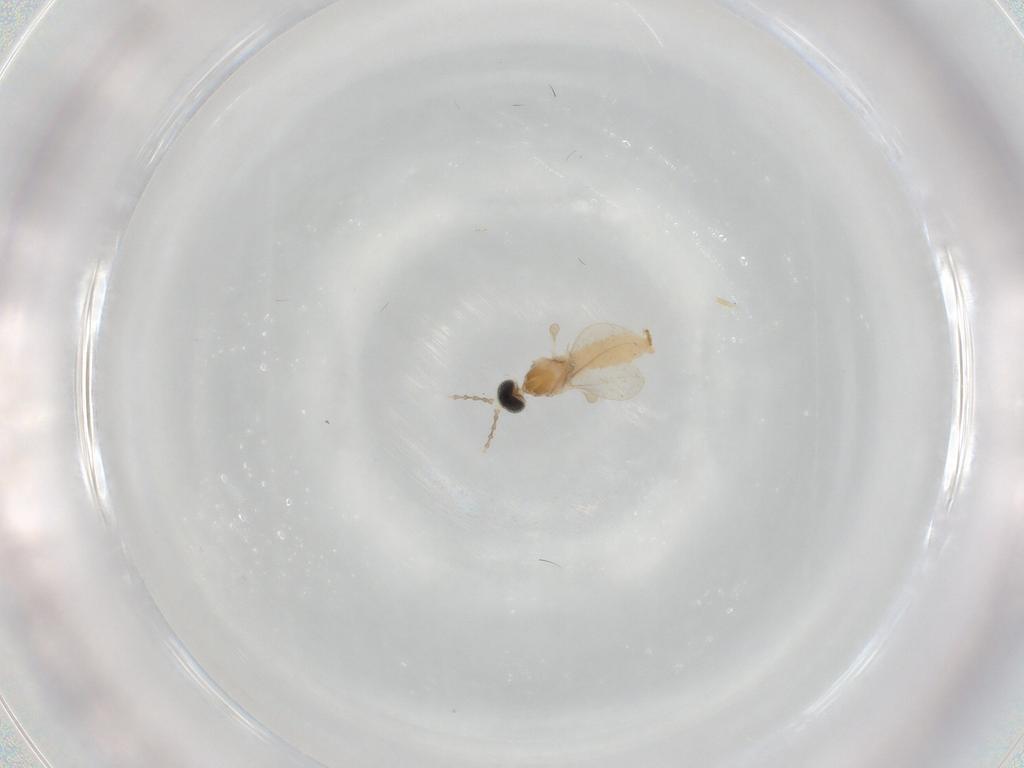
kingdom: Animalia
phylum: Arthropoda
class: Insecta
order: Diptera
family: Cecidomyiidae
